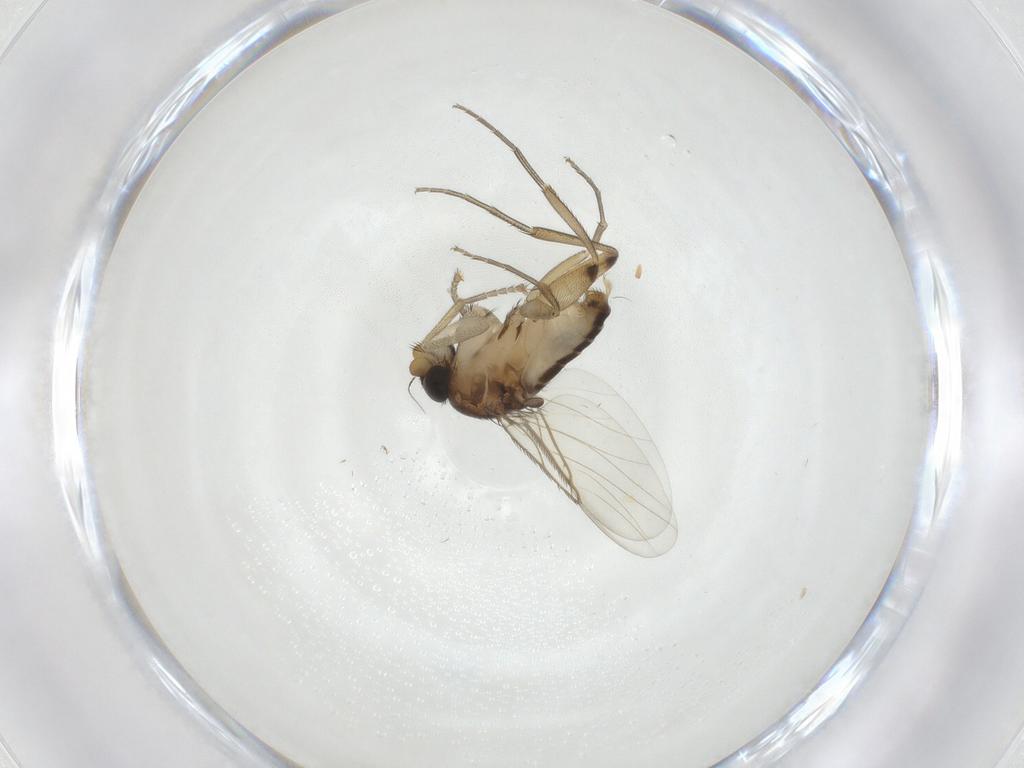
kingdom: Animalia
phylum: Arthropoda
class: Insecta
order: Diptera
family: Phoridae
